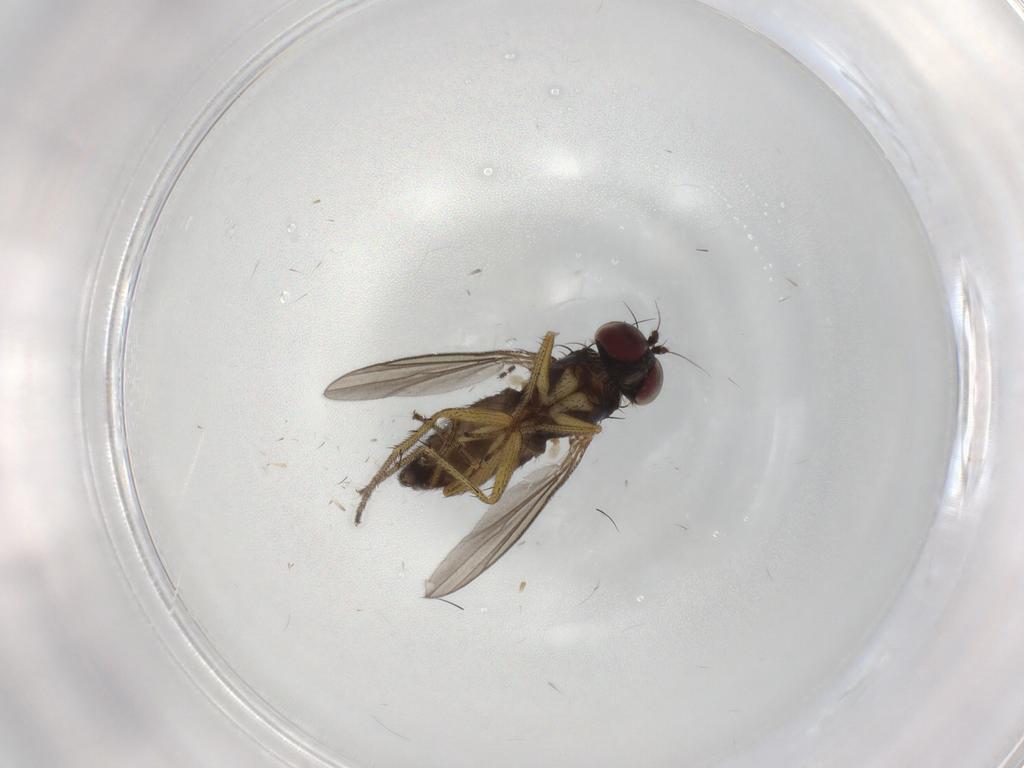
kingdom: Animalia
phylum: Arthropoda
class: Insecta
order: Diptera
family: Chironomidae
